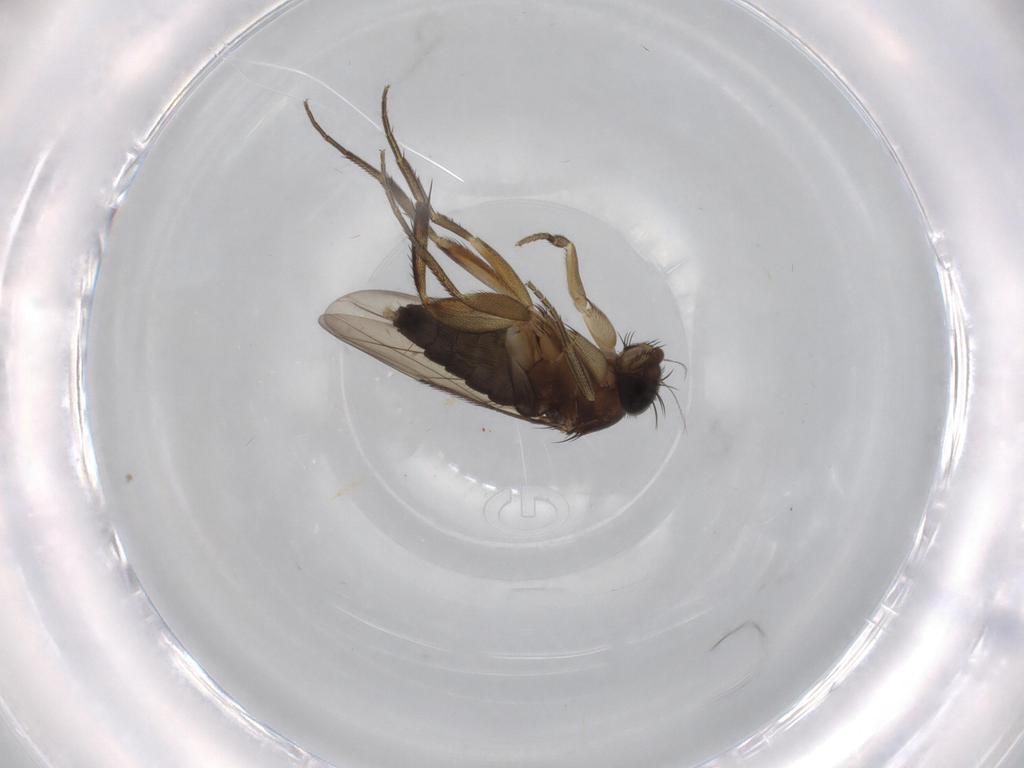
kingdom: Animalia
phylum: Arthropoda
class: Insecta
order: Diptera
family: Phoridae
